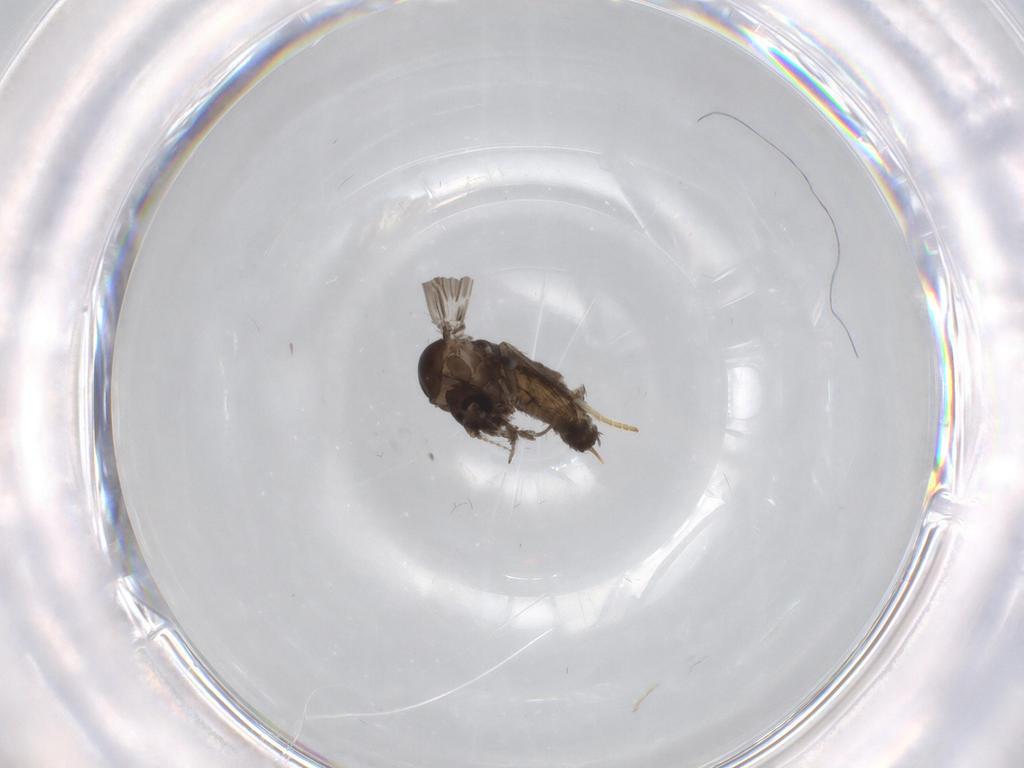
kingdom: Animalia
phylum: Arthropoda
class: Insecta
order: Diptera
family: Psychodidae
